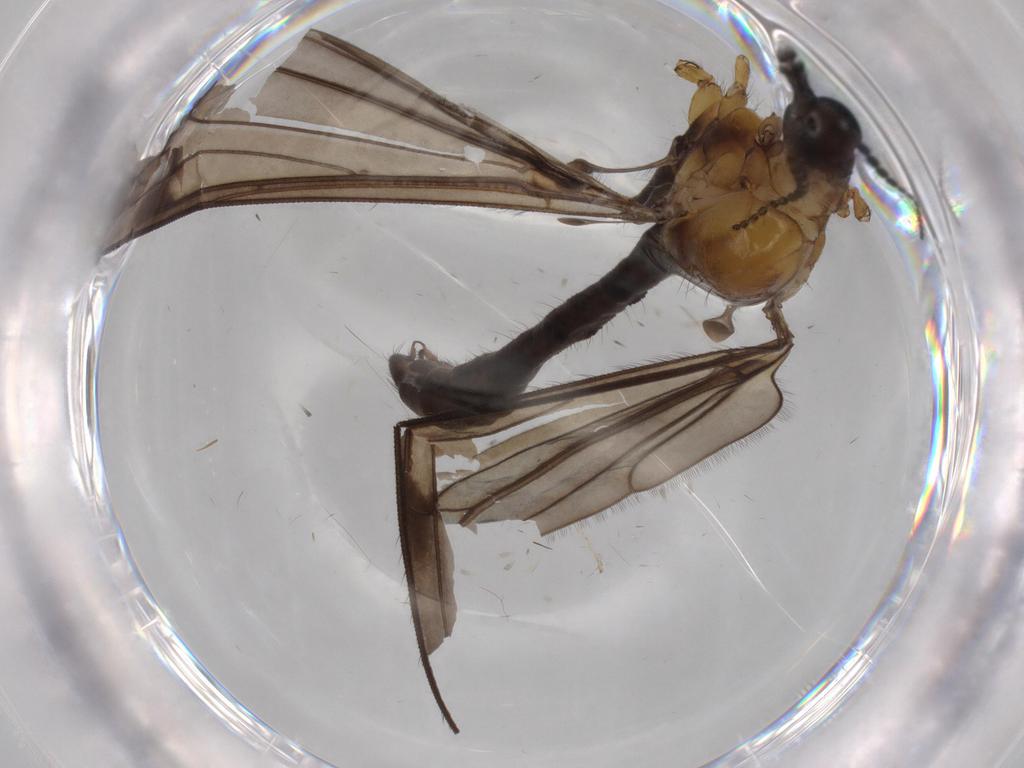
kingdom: Animalia
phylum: Arthropoda
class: Insecta
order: Diptera
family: Limoniidae
